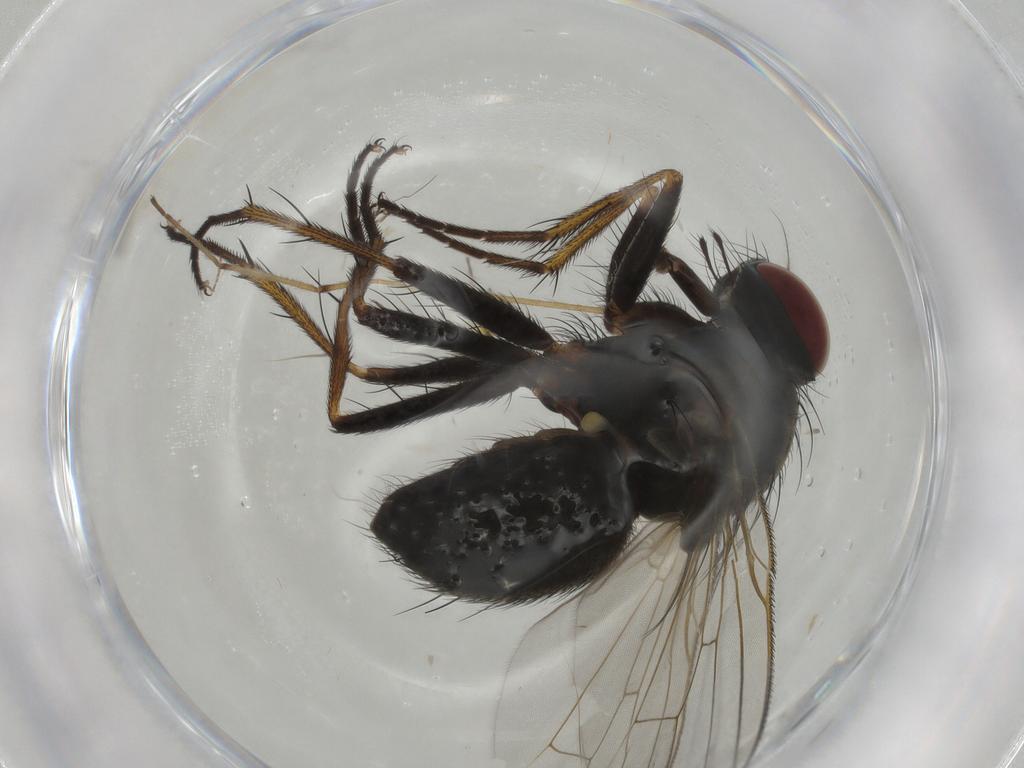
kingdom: Animalia
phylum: Arthropoda
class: Insecta
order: Diptera
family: Muscidae
